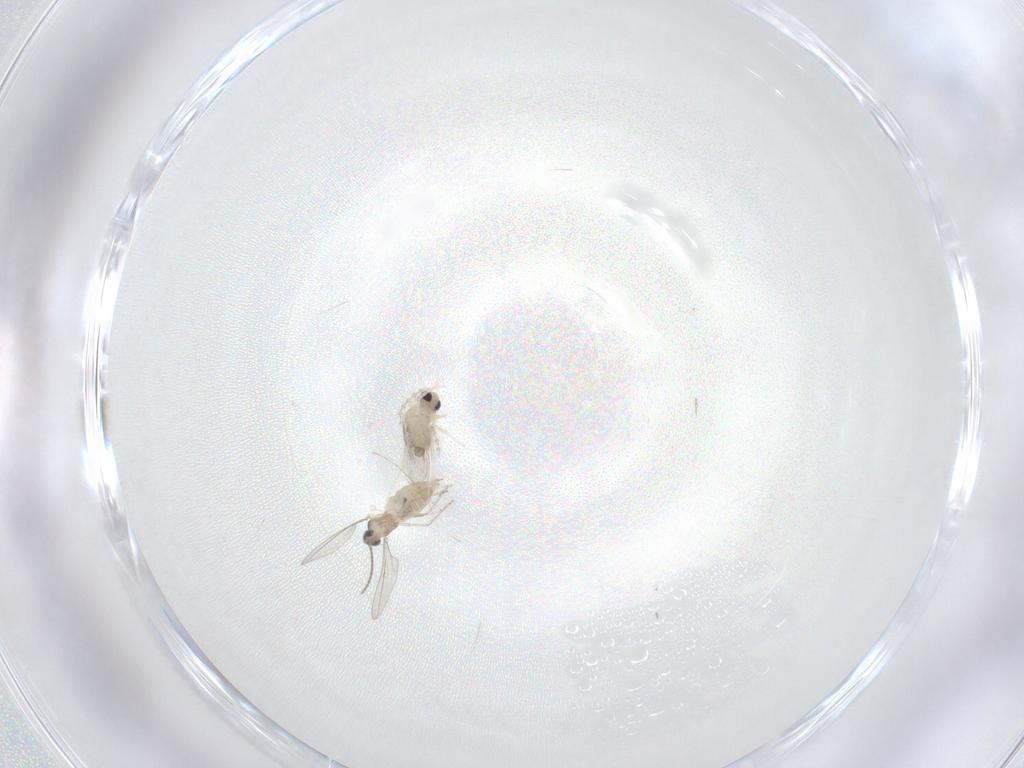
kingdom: Animalia
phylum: Arthropoda
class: Insecta
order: Diptera
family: Cecidomyiidae
